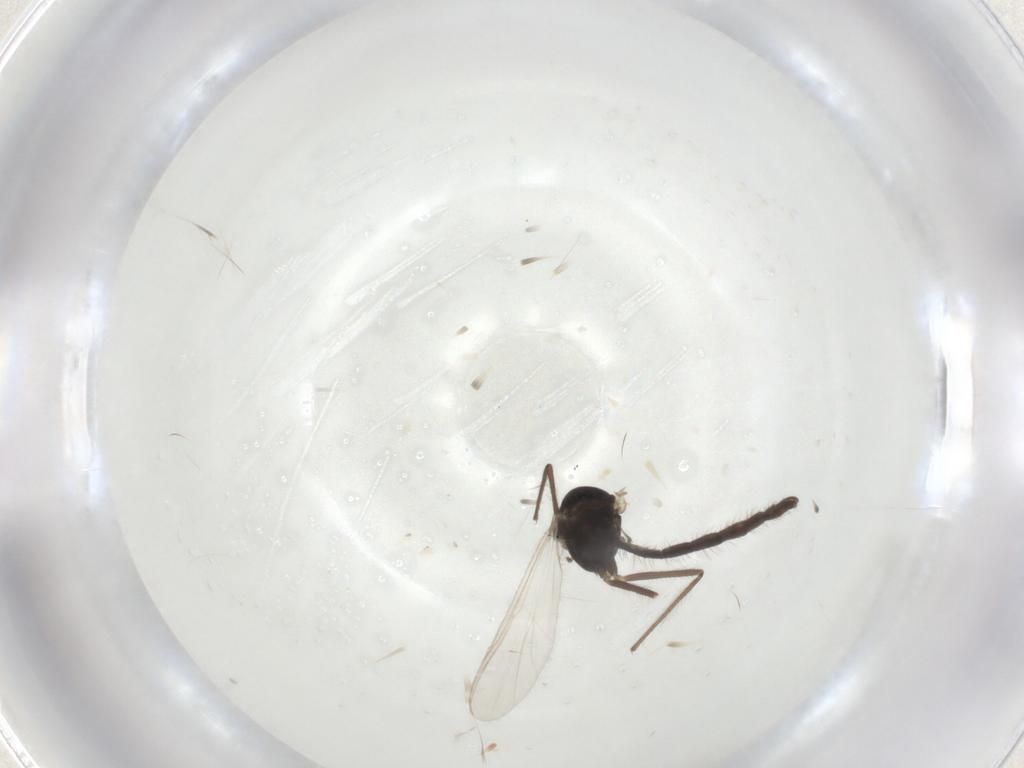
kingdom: Animalia
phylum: Arthropoda
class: Insecta
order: Diptera
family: Chironomidae
